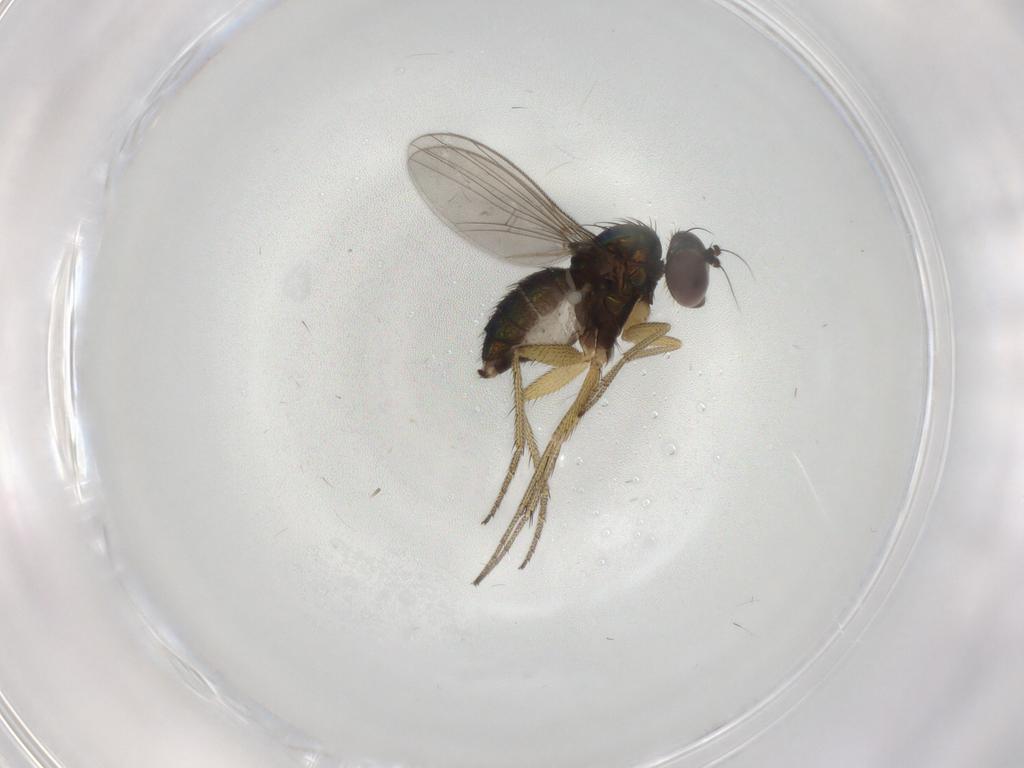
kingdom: Animalia
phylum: Arthropoda
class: Insecta
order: Diptera
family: Dolichopodidae
